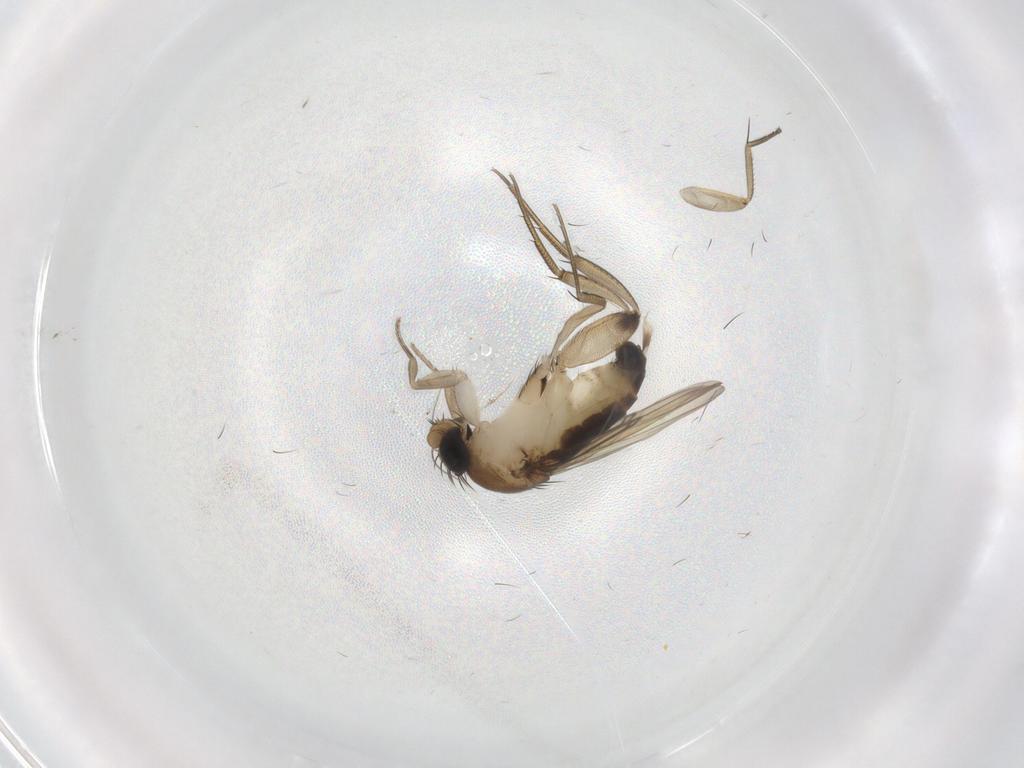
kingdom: Animalia
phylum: Arthropoda
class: Insecta
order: Diptera
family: Phoridae
